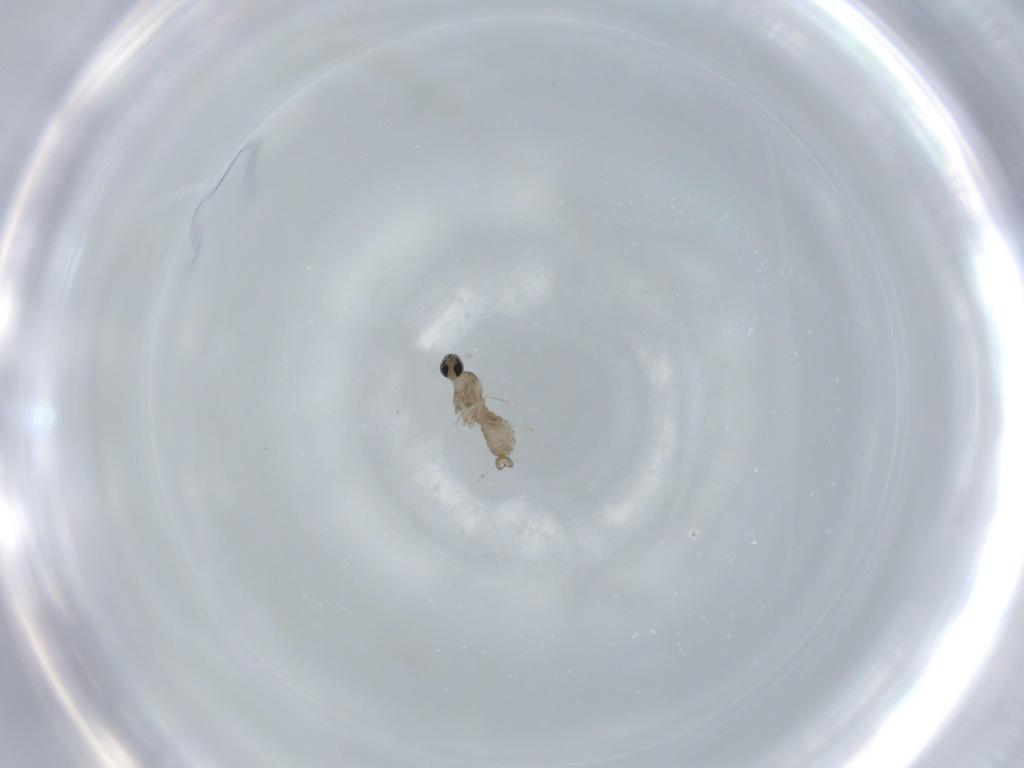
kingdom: Animalia
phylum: Arthropoda
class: Insecta
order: Diptera
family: Cecidomyiidae
